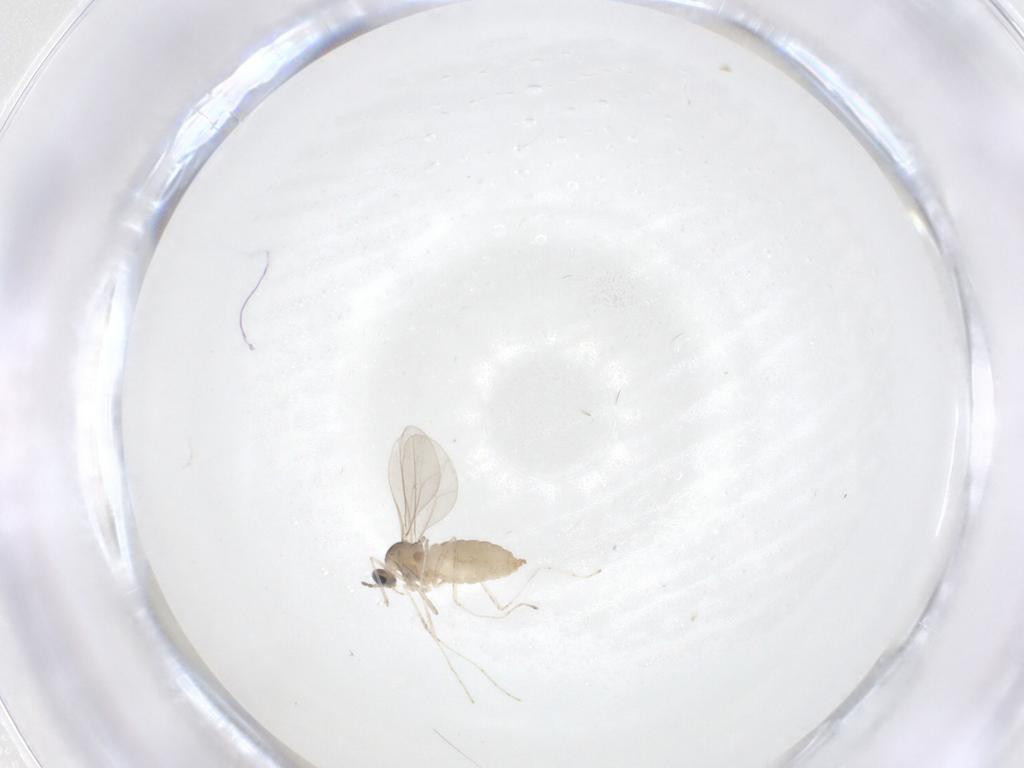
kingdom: Animalia
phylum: Arthropoda
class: Insecta
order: Diptera
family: Cecidomyiidae
